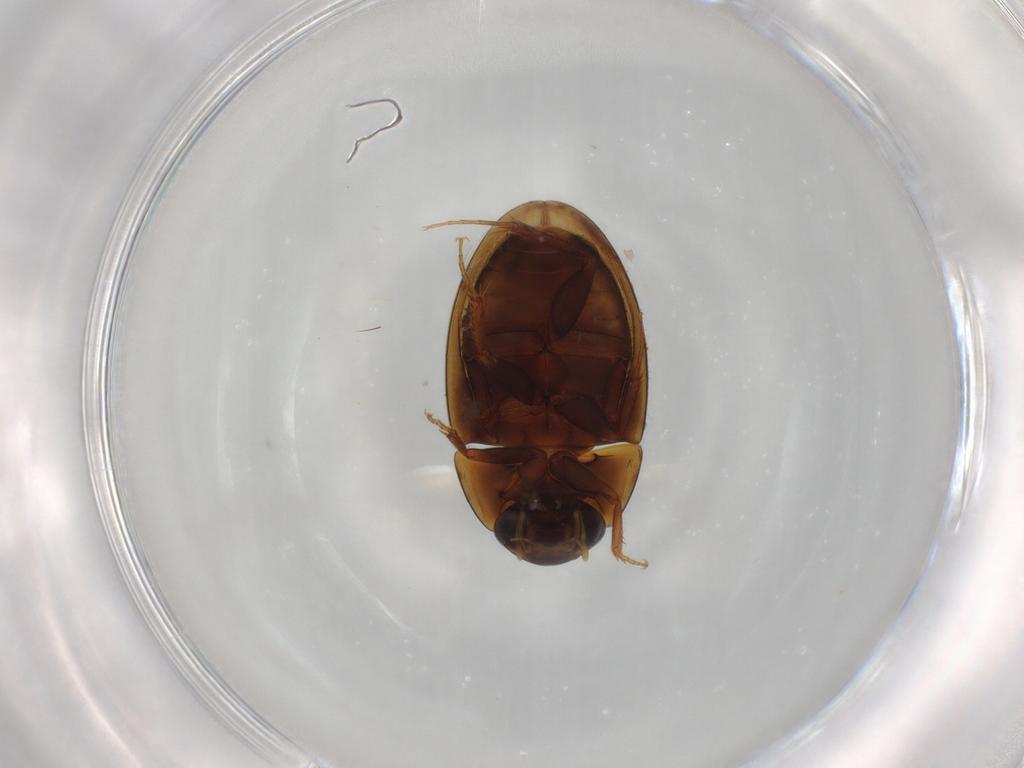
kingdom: Animalia
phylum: Arthropoda
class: Insecta
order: Coleoptera
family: Hydrophilidae
